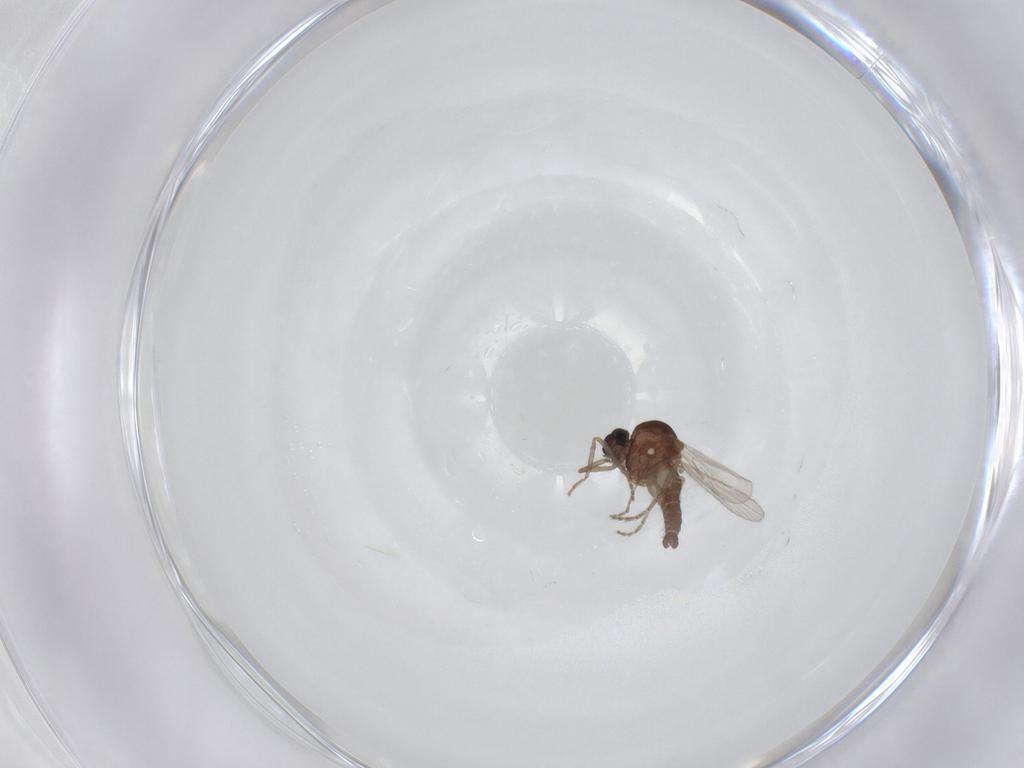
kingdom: Animalia
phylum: Arthropoda
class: Insecta
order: Diptera
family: Ceratopogonidae
